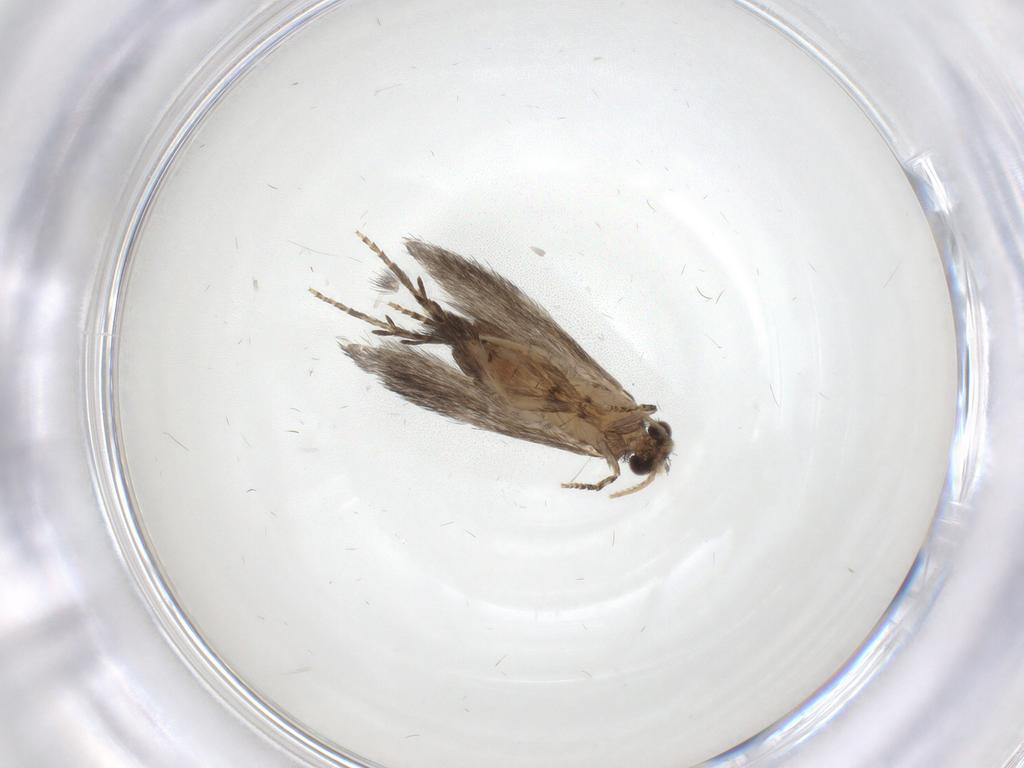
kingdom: Animalia
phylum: Arthropoda
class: Insecta
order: Trichoptera
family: Hydroptilidae
